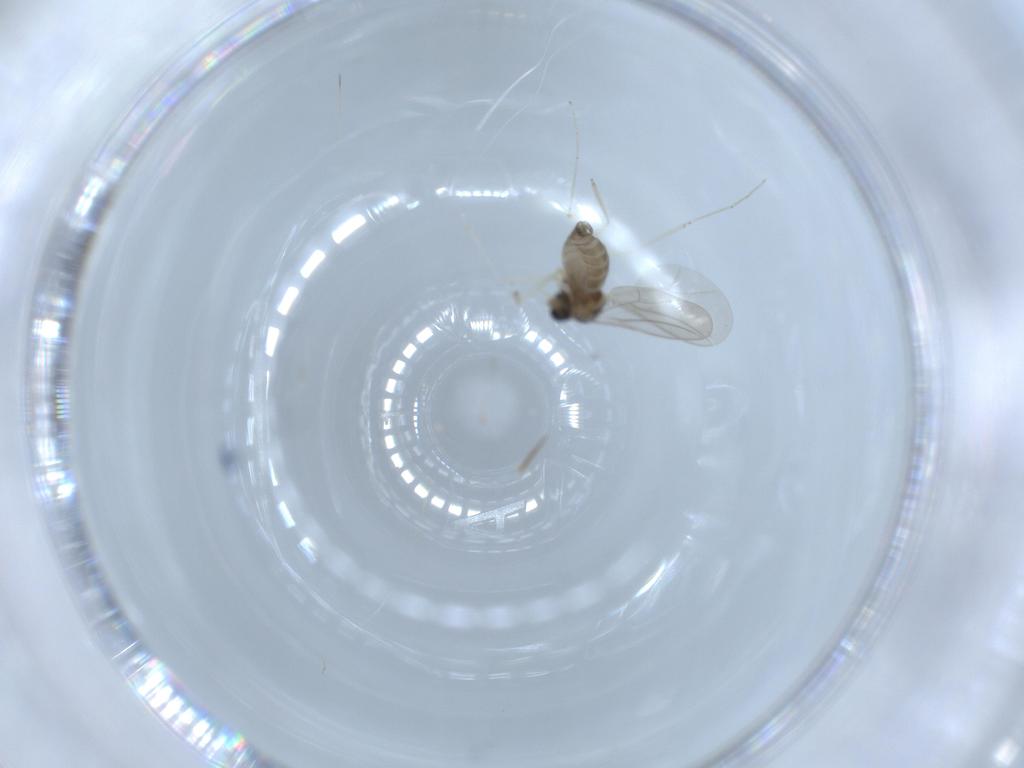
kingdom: Animalia
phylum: Arthropoda
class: Insecta
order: Diptera
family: Cecidomyiidae
